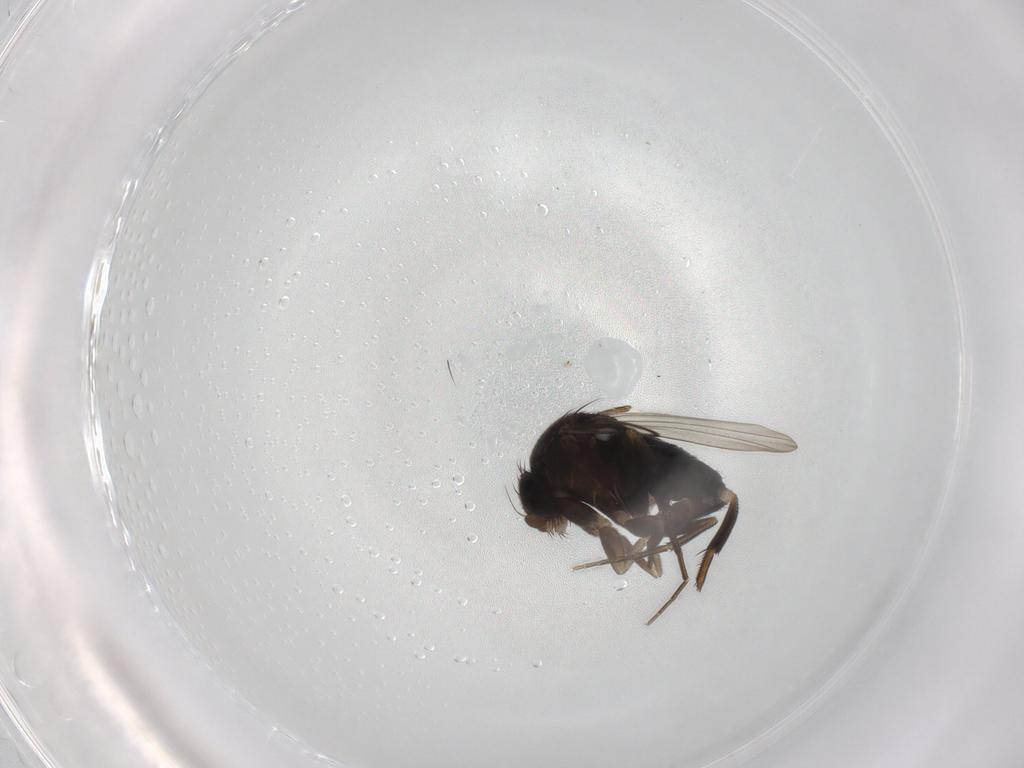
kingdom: Animalia
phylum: Arthropoda
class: Insecta
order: Diptera
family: Phoridae
